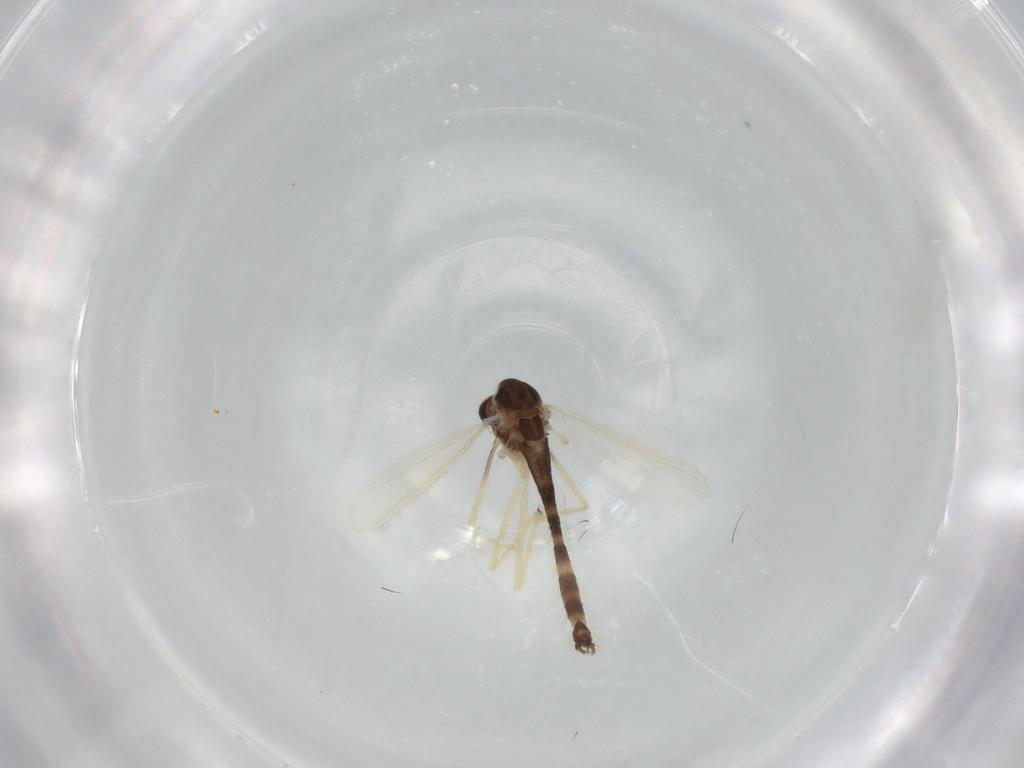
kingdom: Animalia
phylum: Arthropoda
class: Insecta
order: Diptera
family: Chironomidae
